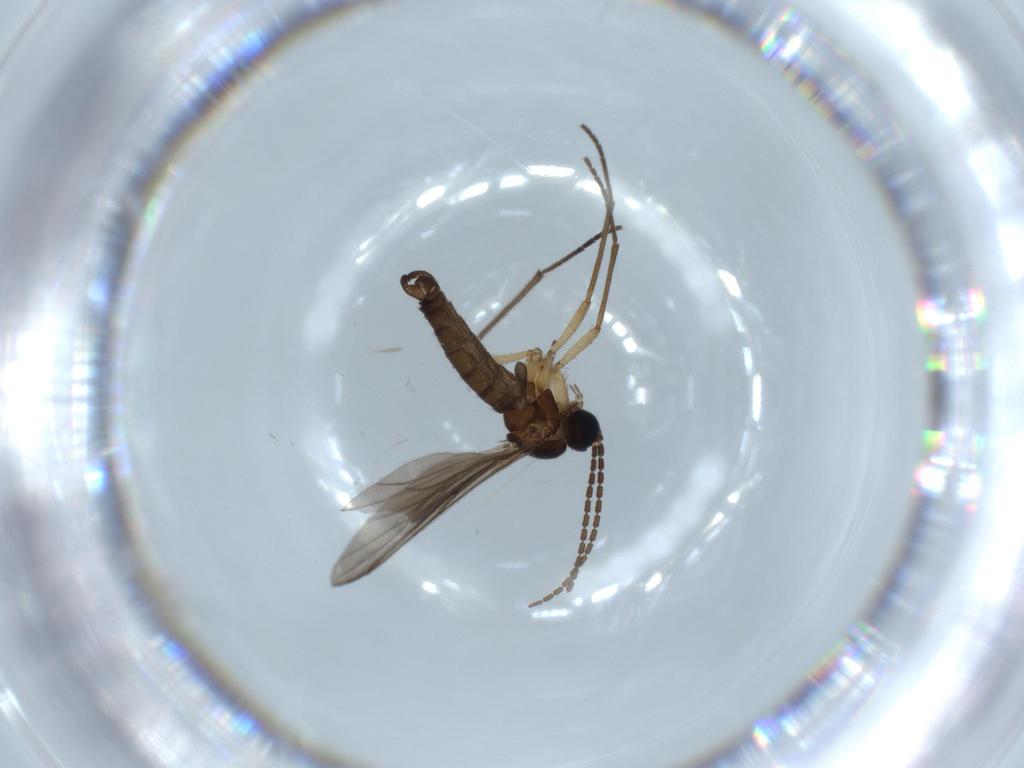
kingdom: Animalia
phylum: Arthropoda
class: Insecta
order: Diptera
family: Sciaridae
